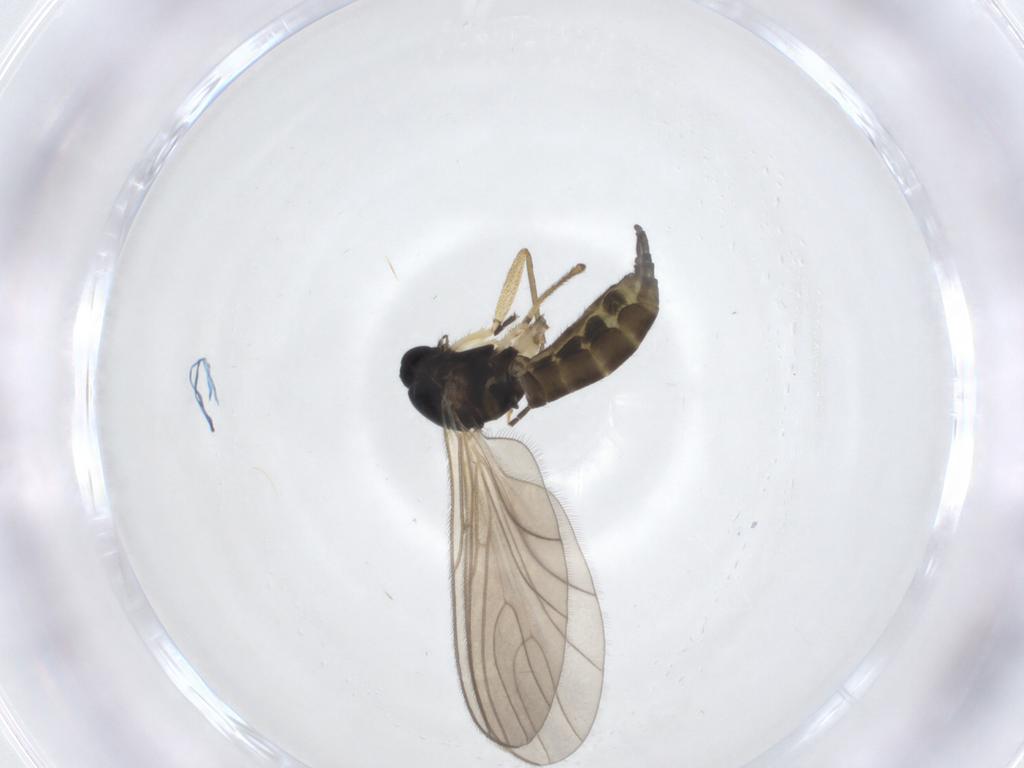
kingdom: Animalia
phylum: Arthropoda
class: Insecta
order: Diptera
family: Sciaridae
